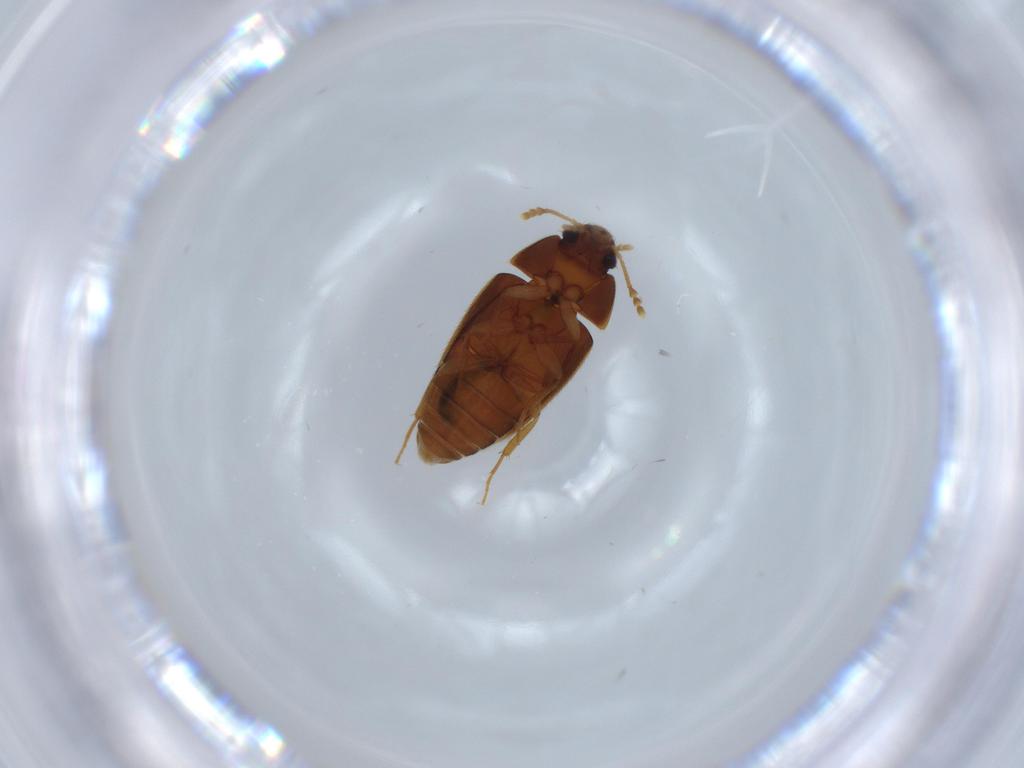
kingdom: Animalia
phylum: Arthropoda
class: Insecta
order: Coleoptera
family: Mycetophagidae
